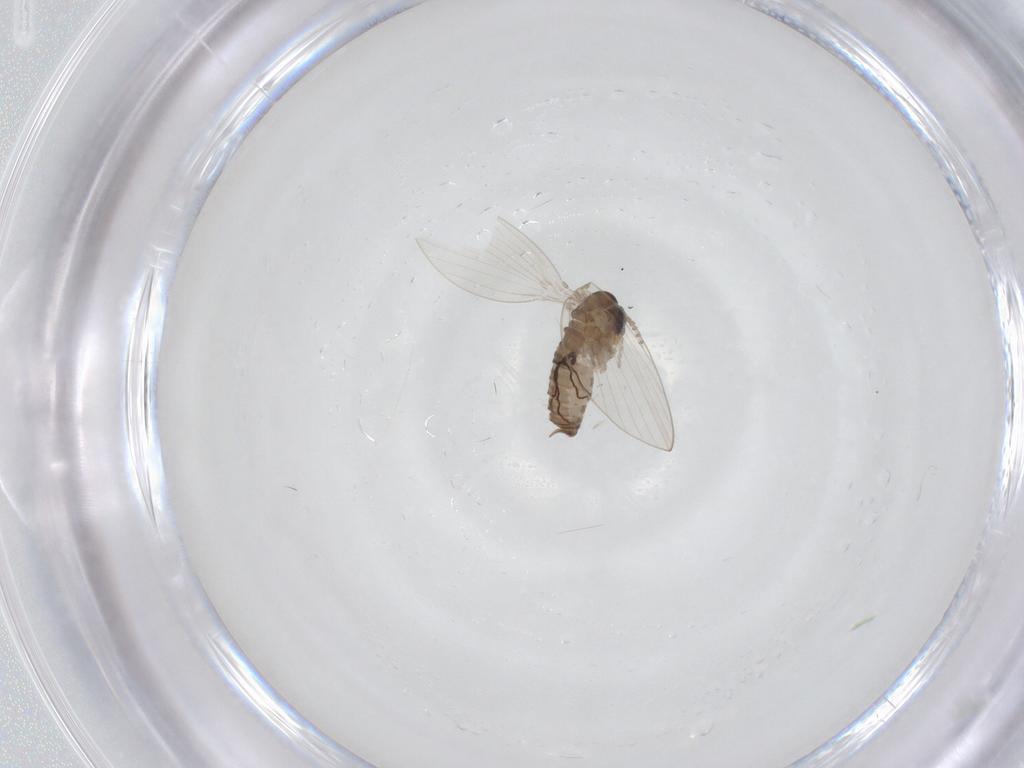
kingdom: Animalia
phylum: Arthropoda
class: Insecta
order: Diptera
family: Psychodidae
